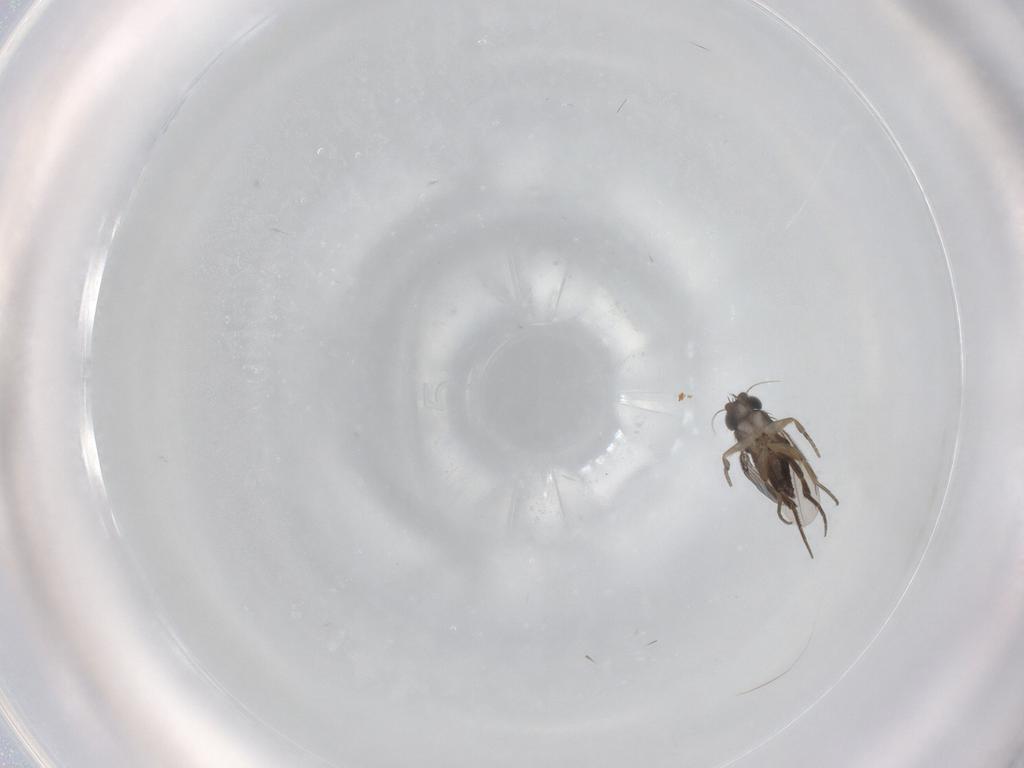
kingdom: Animalia
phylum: Arthropoda
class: Insecta
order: Diptera
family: Phoridae
